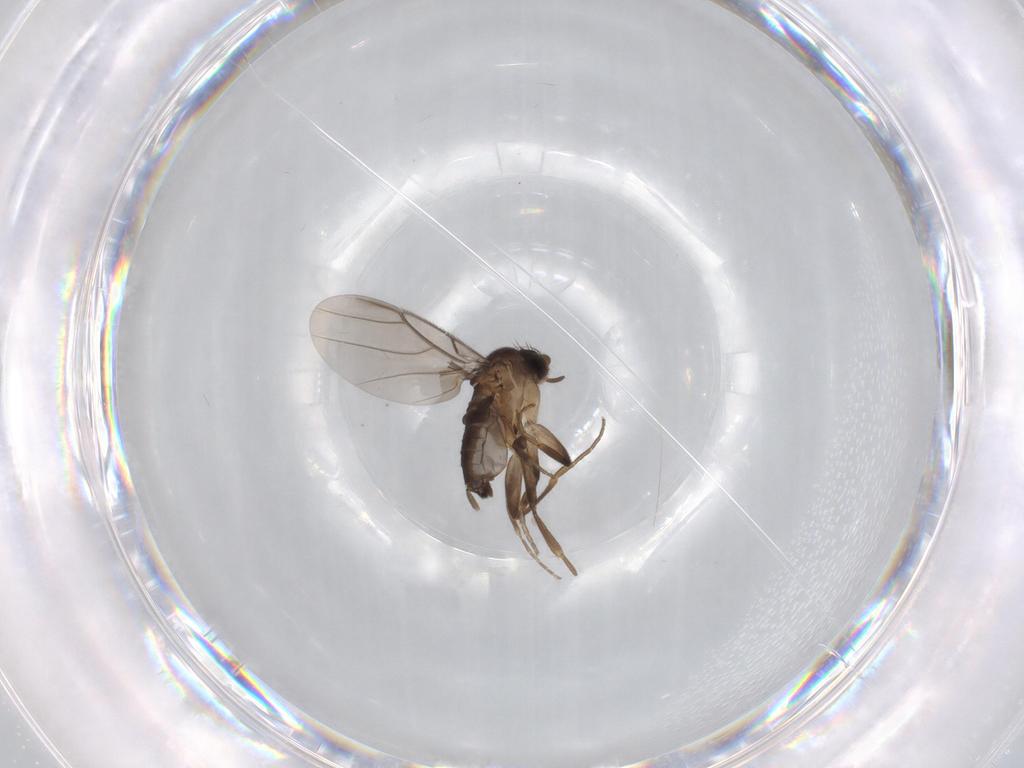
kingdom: Animalia
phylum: Arthropoda
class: Insecta
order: Diptera
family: Phoridae
